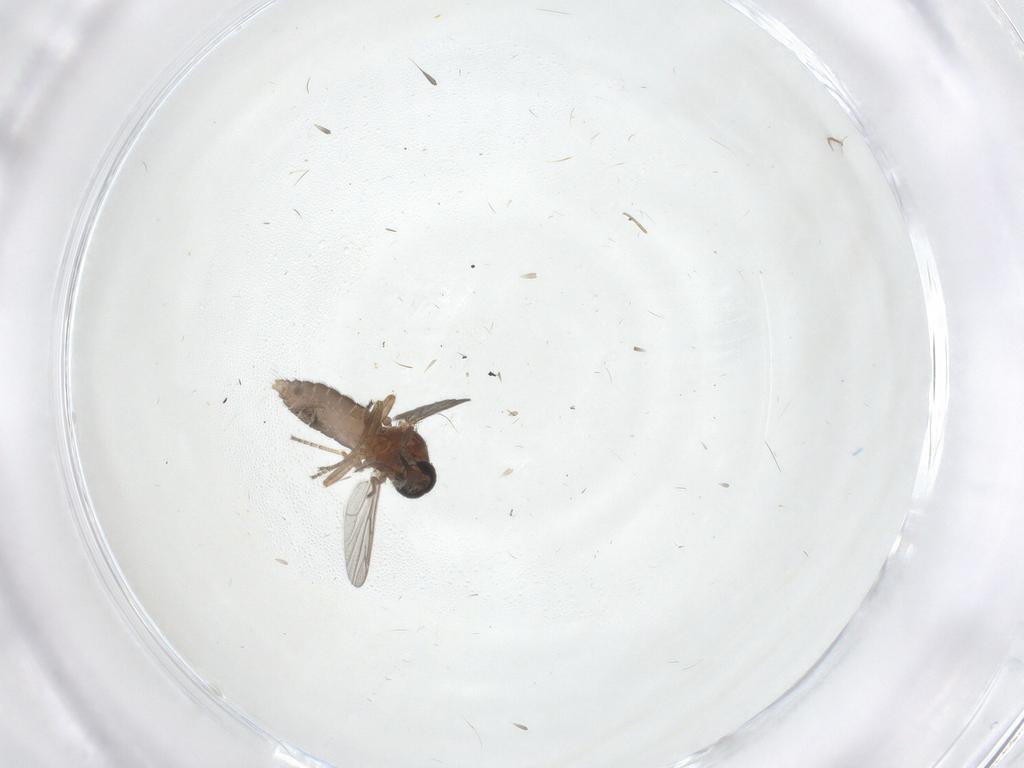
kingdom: Animalia
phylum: Arthropoda
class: Insecta
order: Diptera
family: Ceratopogonidae
